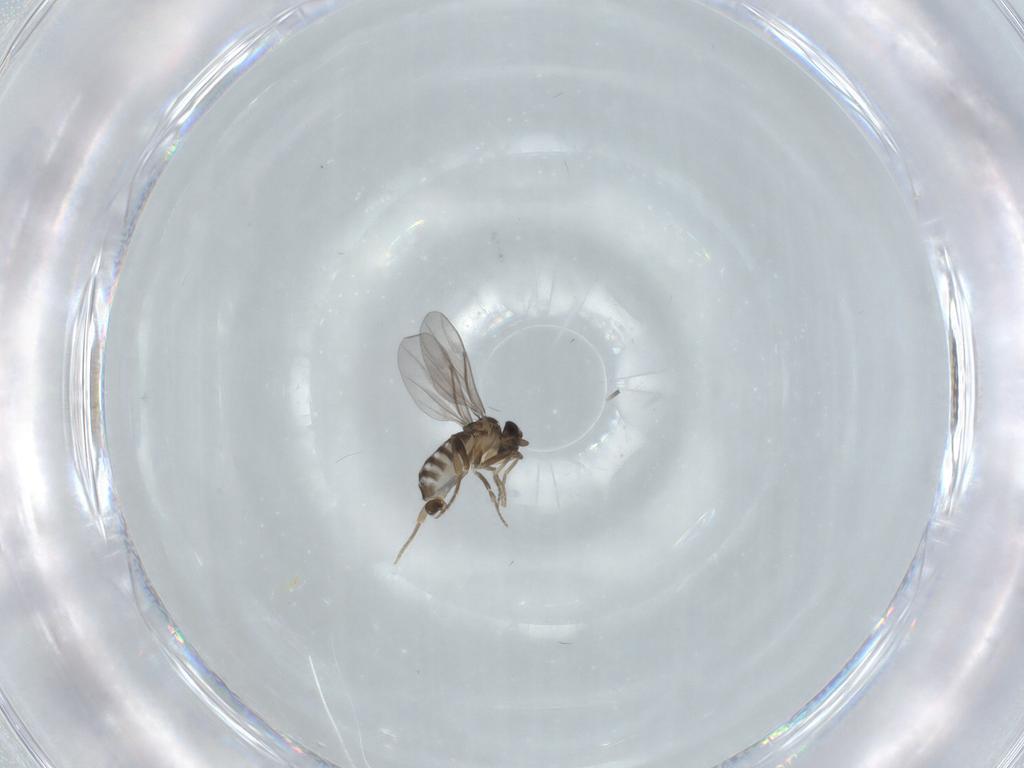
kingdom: Animalia
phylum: Arthropoda
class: Insecta
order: Diptera
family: Phoridae
